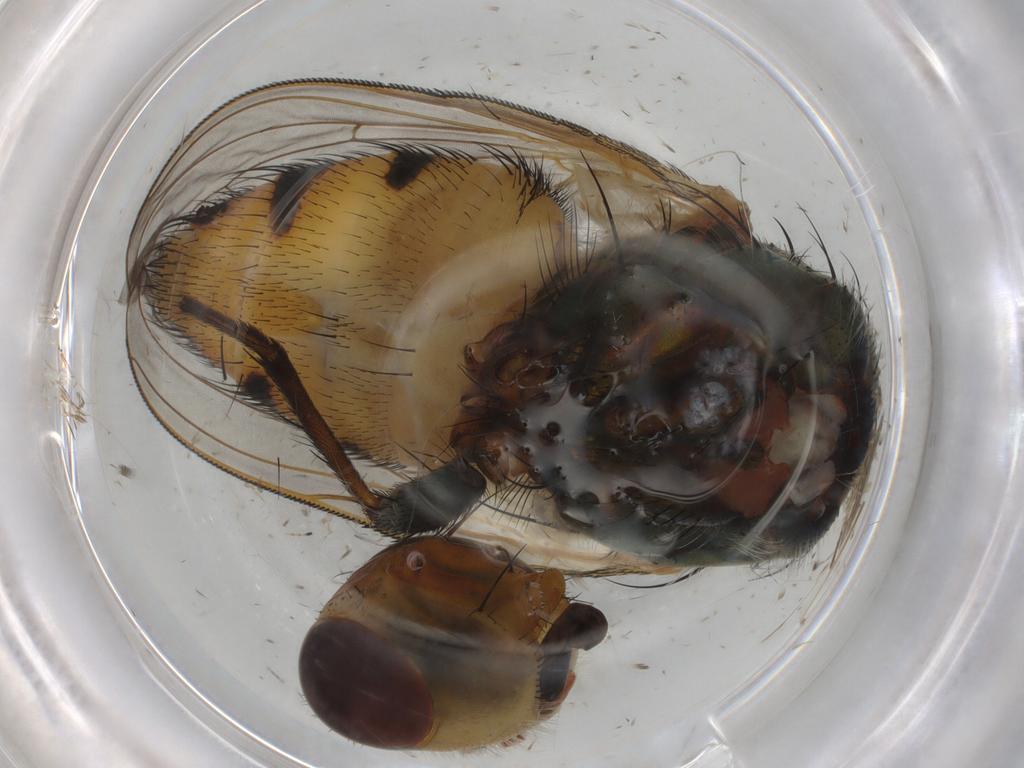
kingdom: Animalia
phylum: Arthropoda
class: Insecta
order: Diptera
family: Calliphoridae
